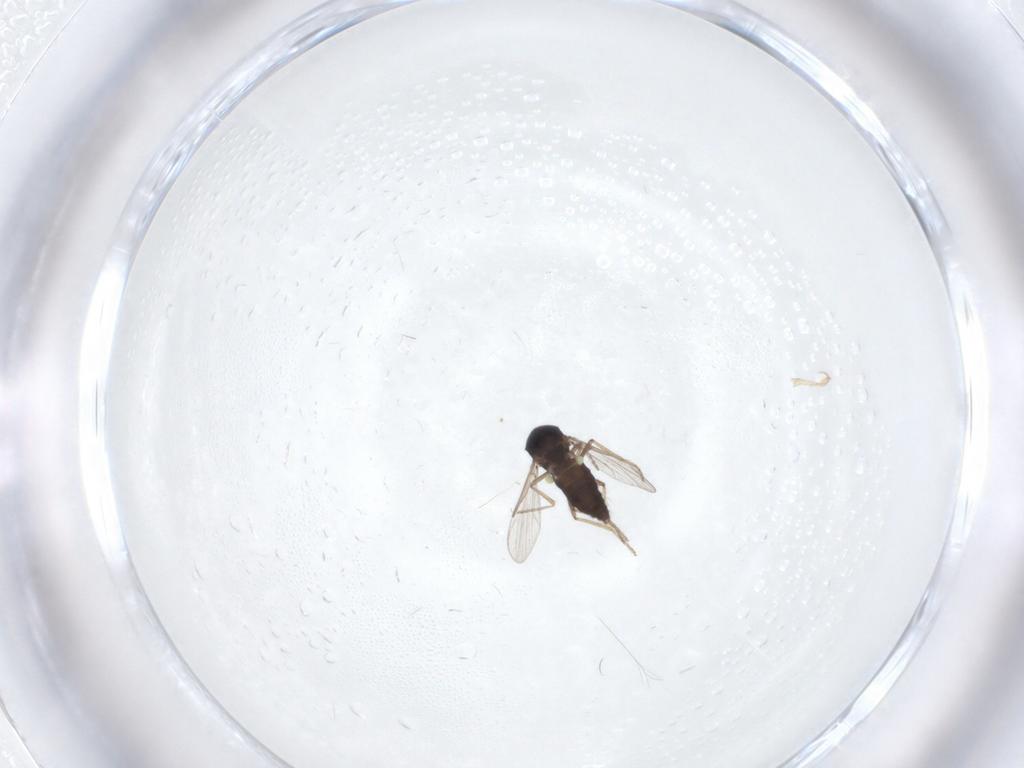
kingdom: Animalia
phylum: Arthropoda
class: Insecta
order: Diptera
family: Ceratopogonidae
